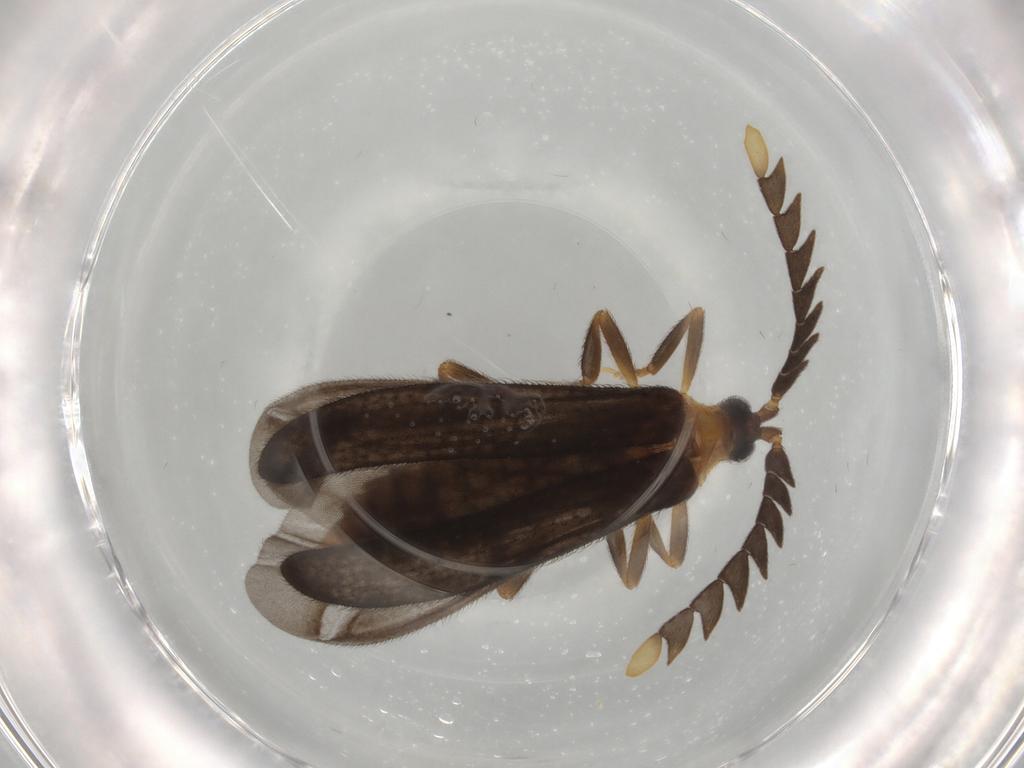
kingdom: Animalia
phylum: Arthropoda
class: Insecta
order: Coleoptera
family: Lycidae
